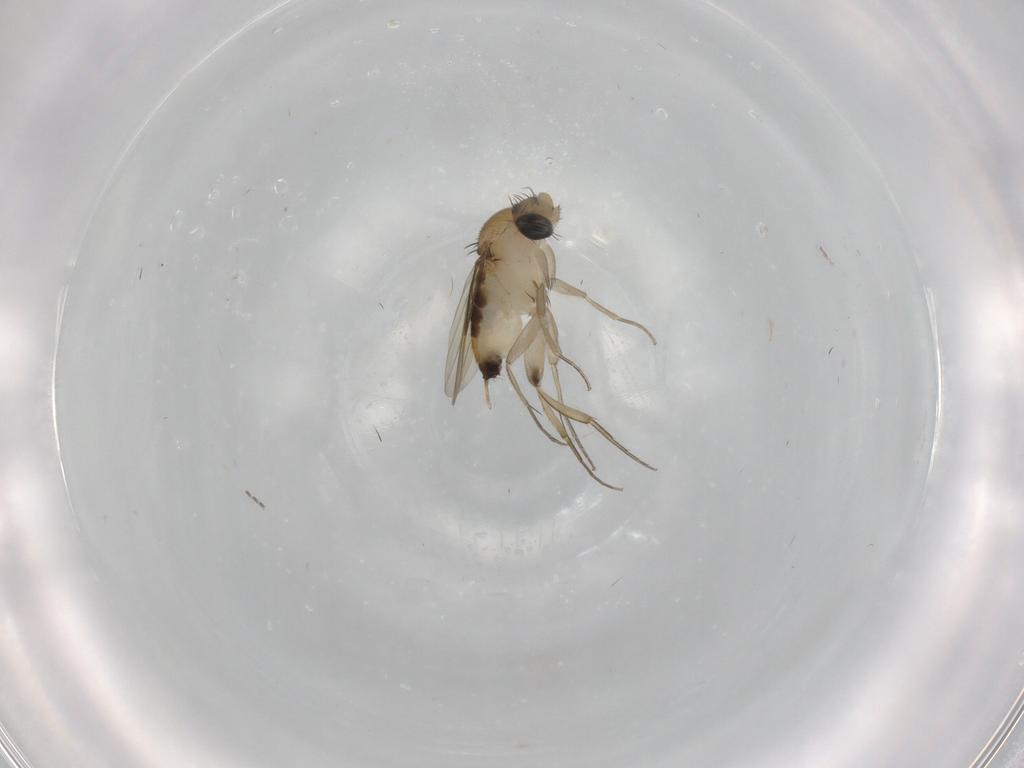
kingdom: Animalia
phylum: Arthropoda
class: Insecta
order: Diptera
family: Phoridae
